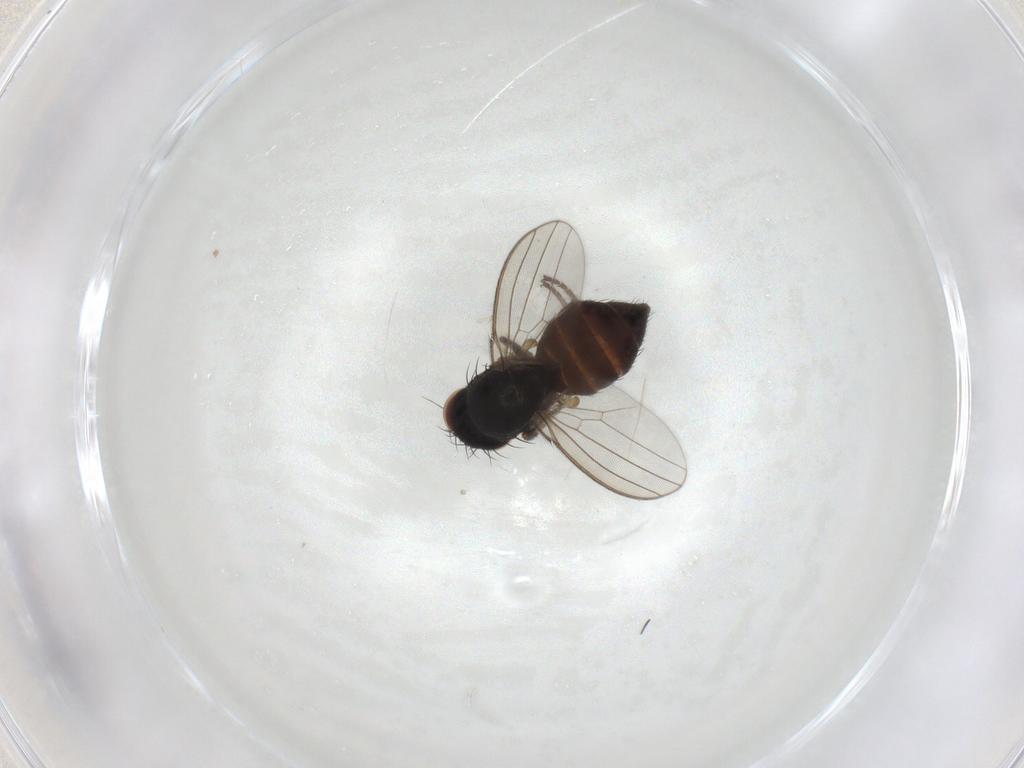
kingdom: Animalia
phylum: Arthropoda
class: Insecta
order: Diptera
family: Milichiidae
